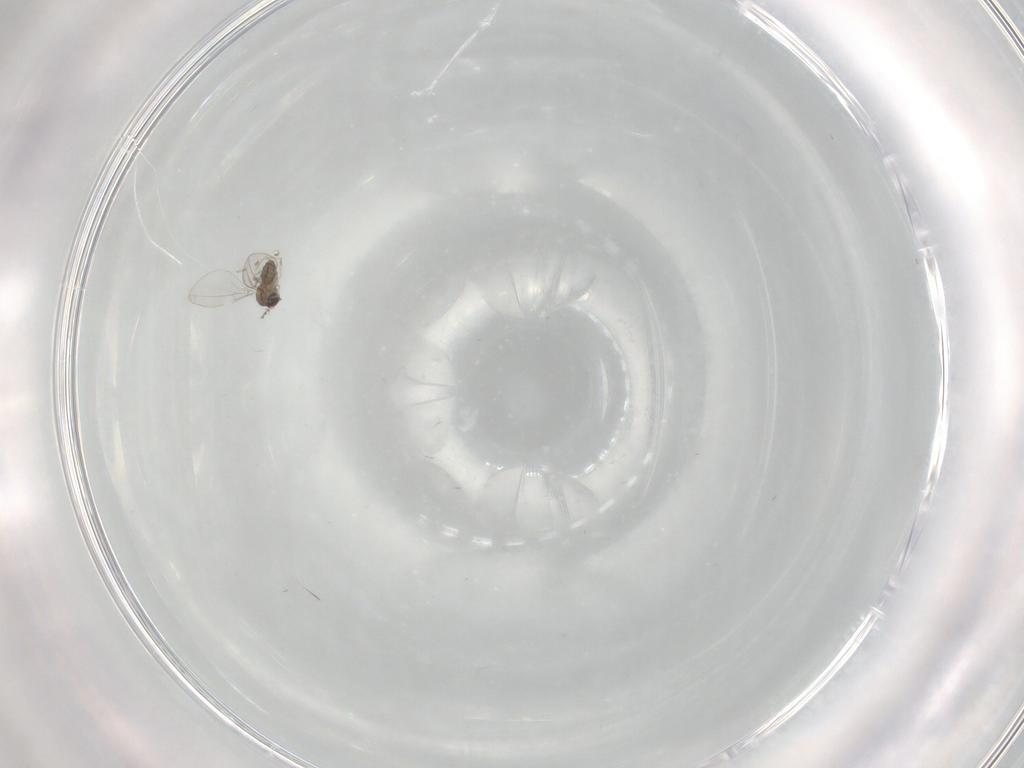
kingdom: Animalia
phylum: Arthropoda
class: Insecta
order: Diptera
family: Cecidomyiidae
